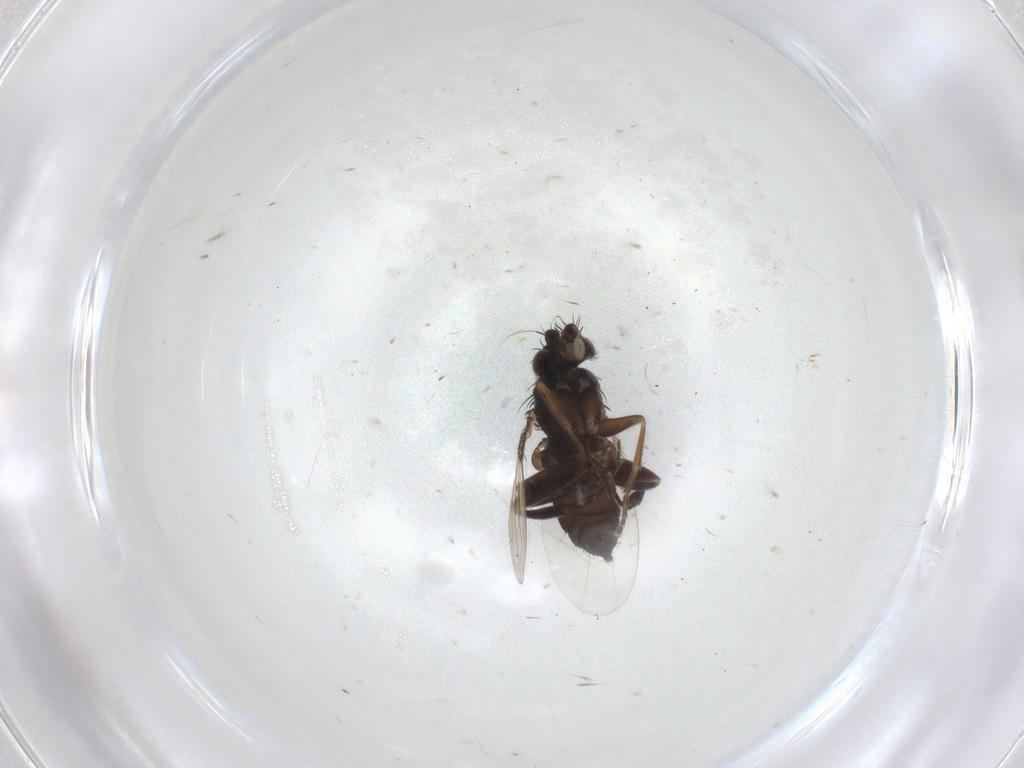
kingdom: Animalia
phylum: Arthropoda
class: Insecta
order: Diptera
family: Phoridae
